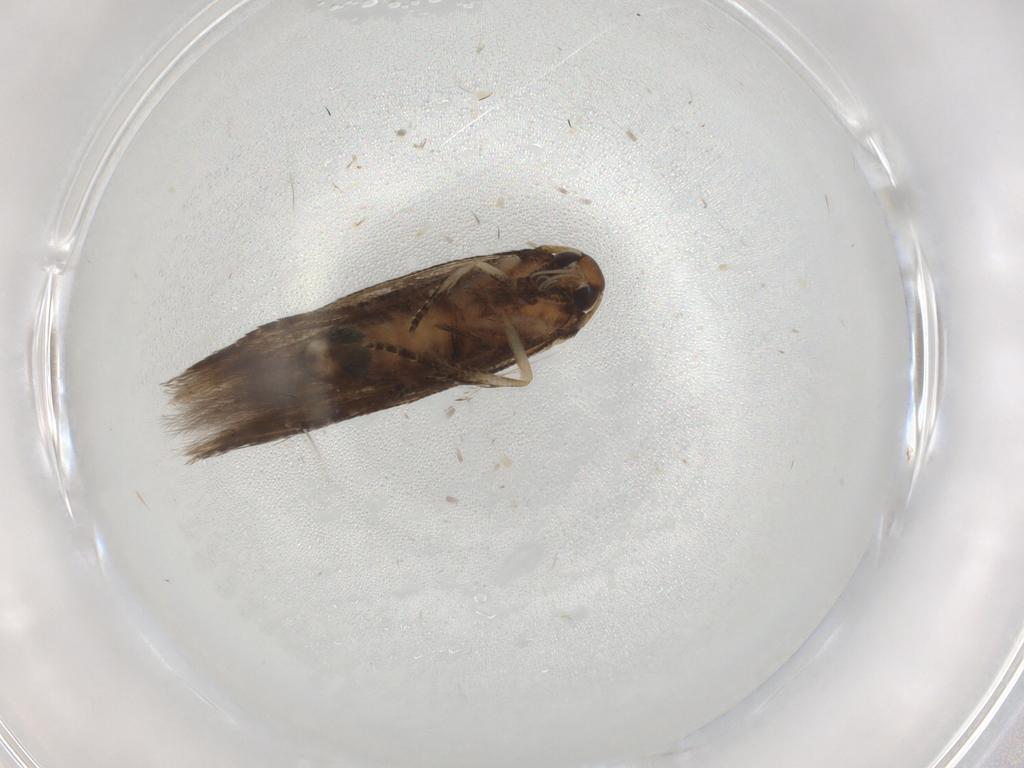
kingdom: Animalia
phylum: Arthropoda
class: Insecta
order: Lepidoptera
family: Cosmopterigidae
